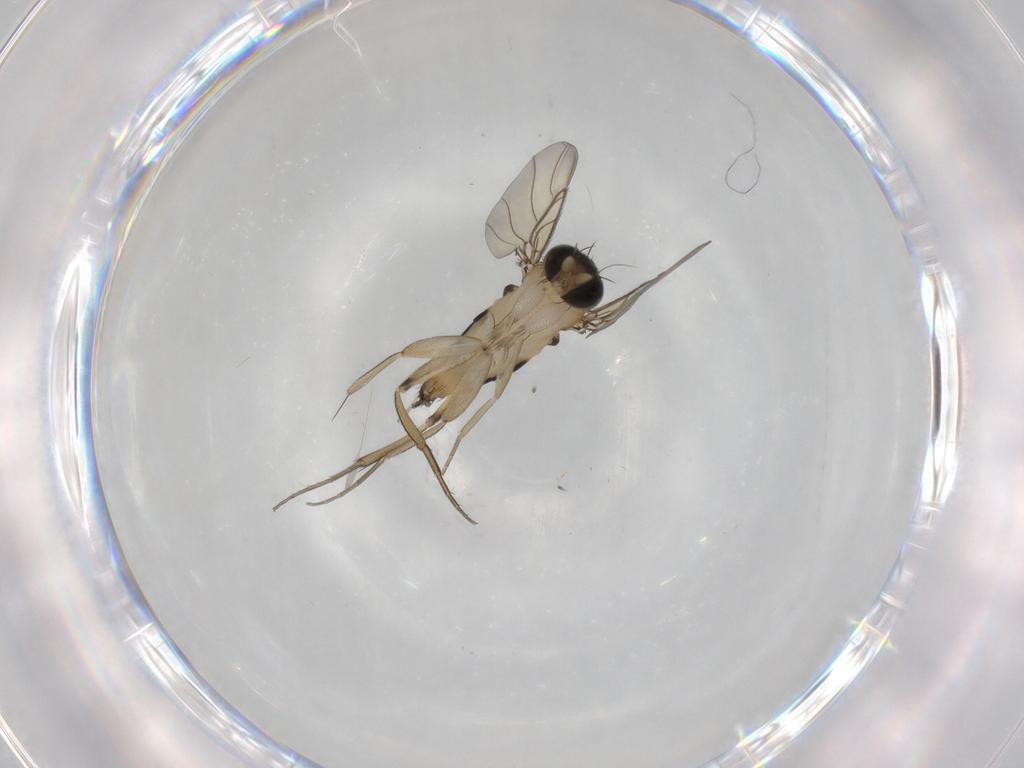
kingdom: Animalia
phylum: Arthropoda
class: Insecta
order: Diptera
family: Phoridae
